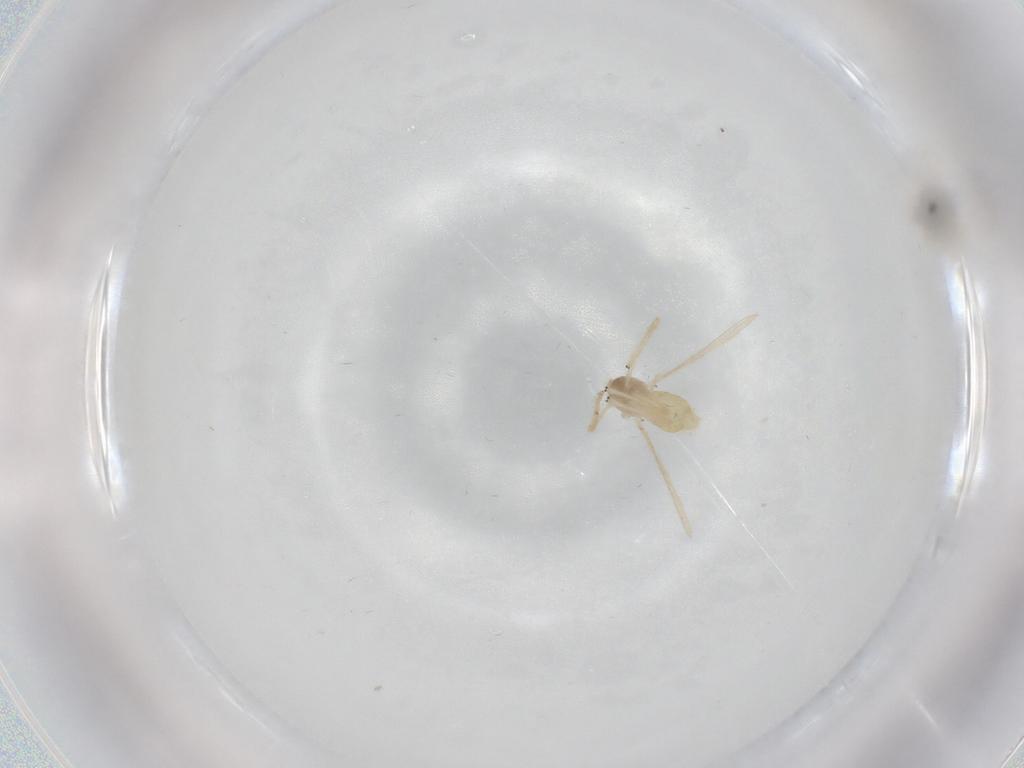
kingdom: Animalia
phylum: Arthropoda
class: Insecta
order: Diptera
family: Chironomidae
